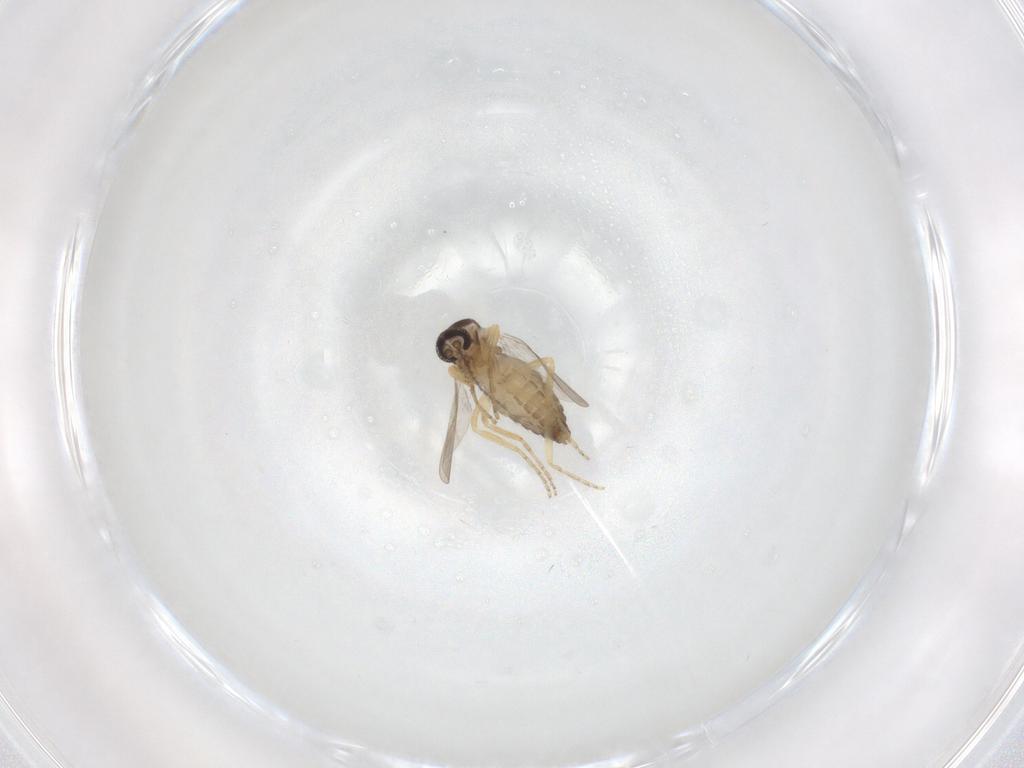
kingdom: Animalia
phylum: Arthropoda
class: Insecta
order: Diptera
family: Ceratopogonidae
